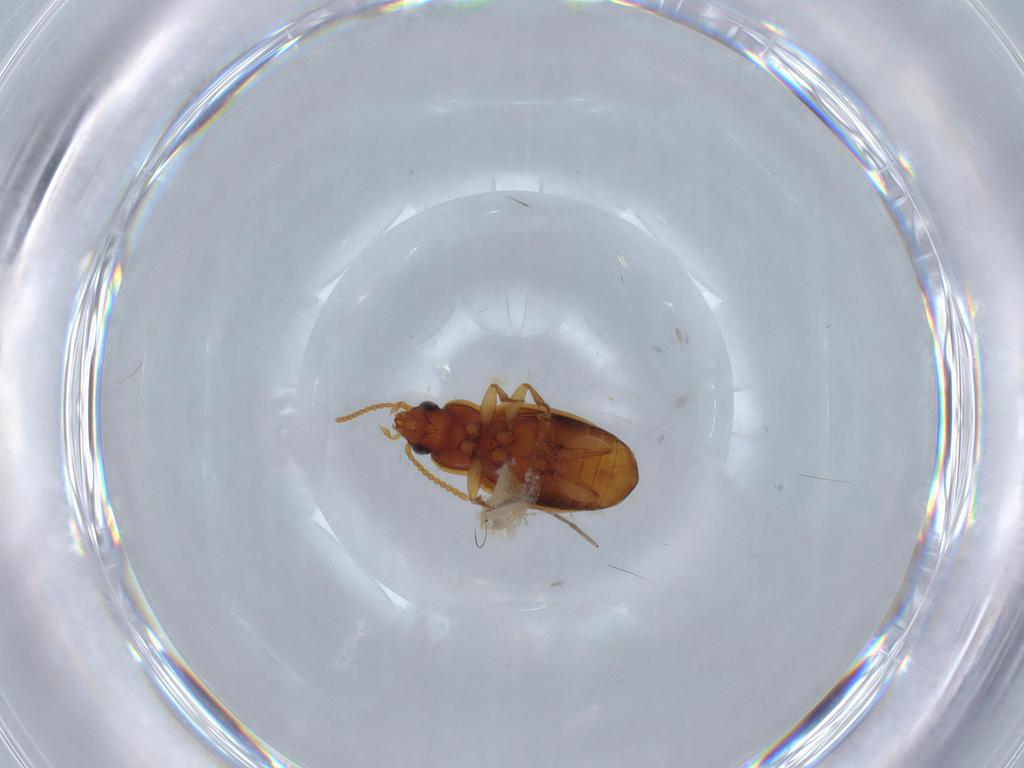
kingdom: Animalia
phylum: Arthropoda
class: Insecta
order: Coleoptera
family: Carabidae
